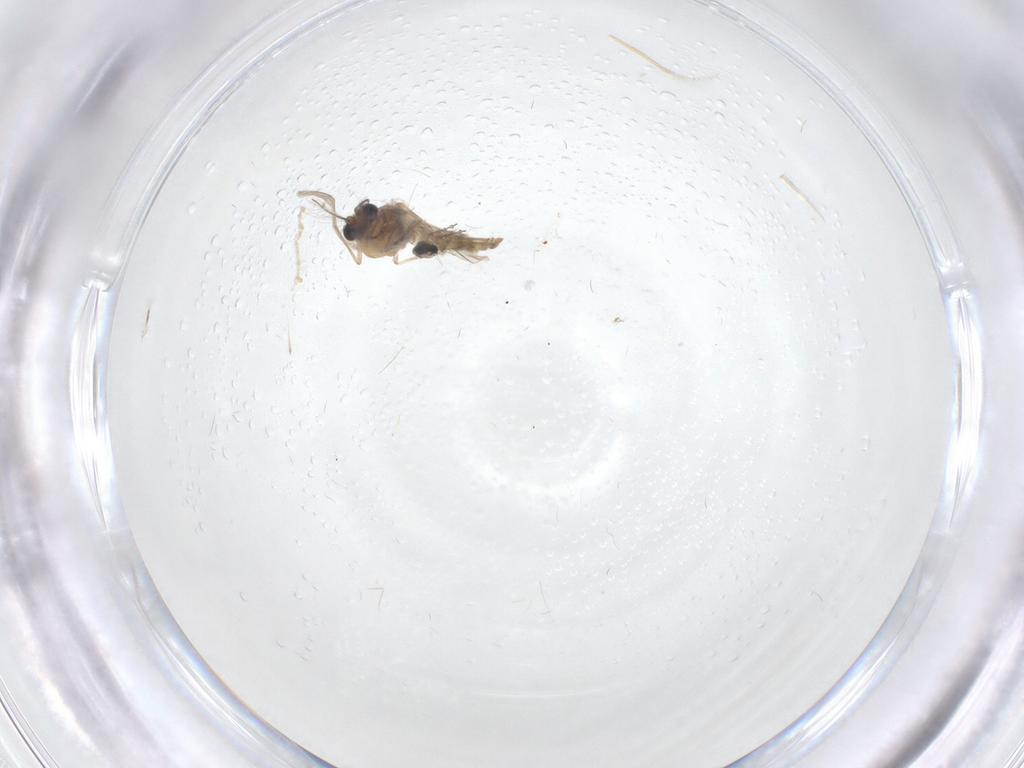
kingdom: Animalia
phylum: Arthropoda
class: Insecta
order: Diptera
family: Chironomidae
